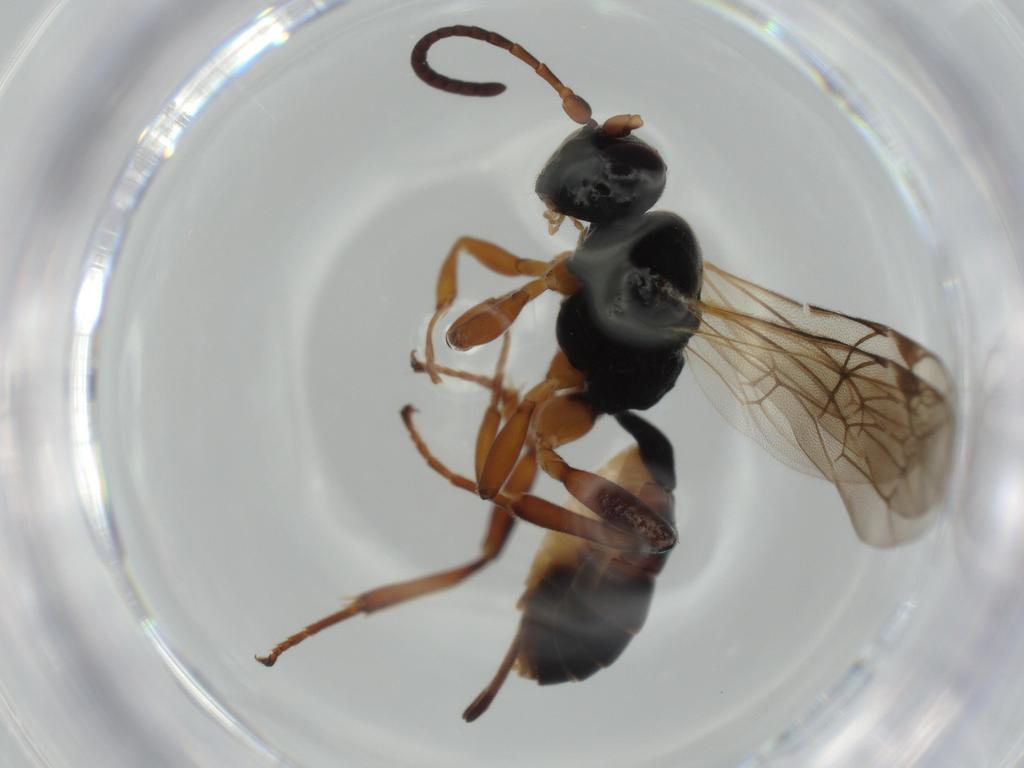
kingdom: Animalia
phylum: Arthropoda
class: Insecta
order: Hymenoptera
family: Ichneumonidae
